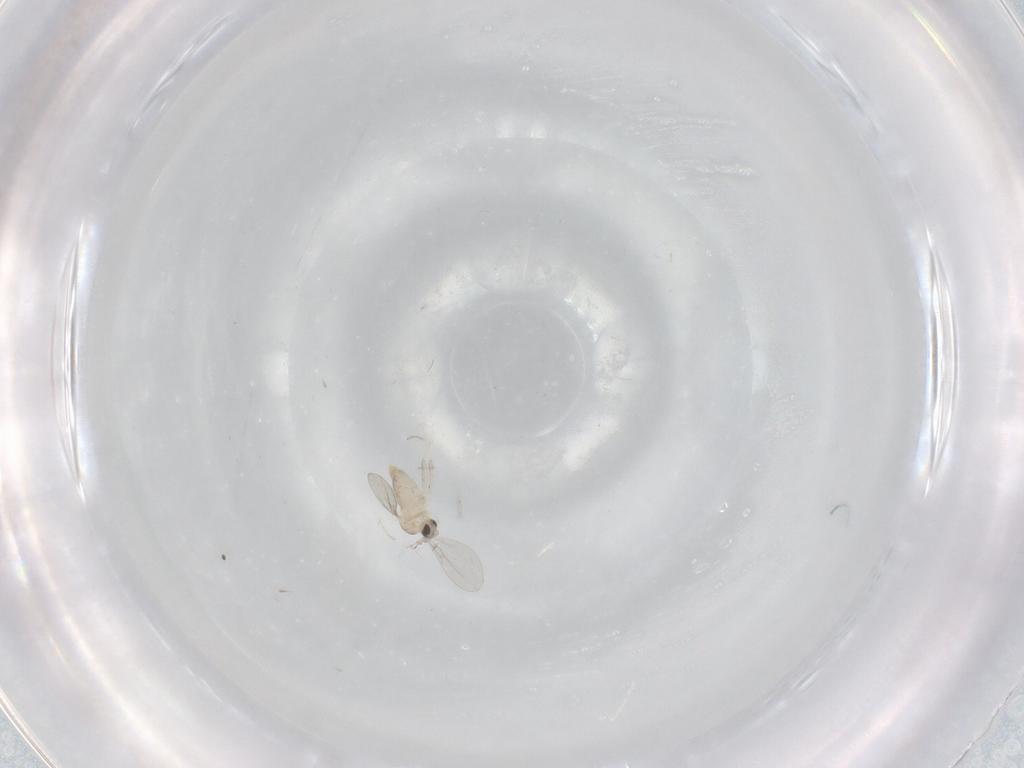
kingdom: Animalia
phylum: Arthropoda
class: Insecta
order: Diptera
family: Cecidomyiidae
